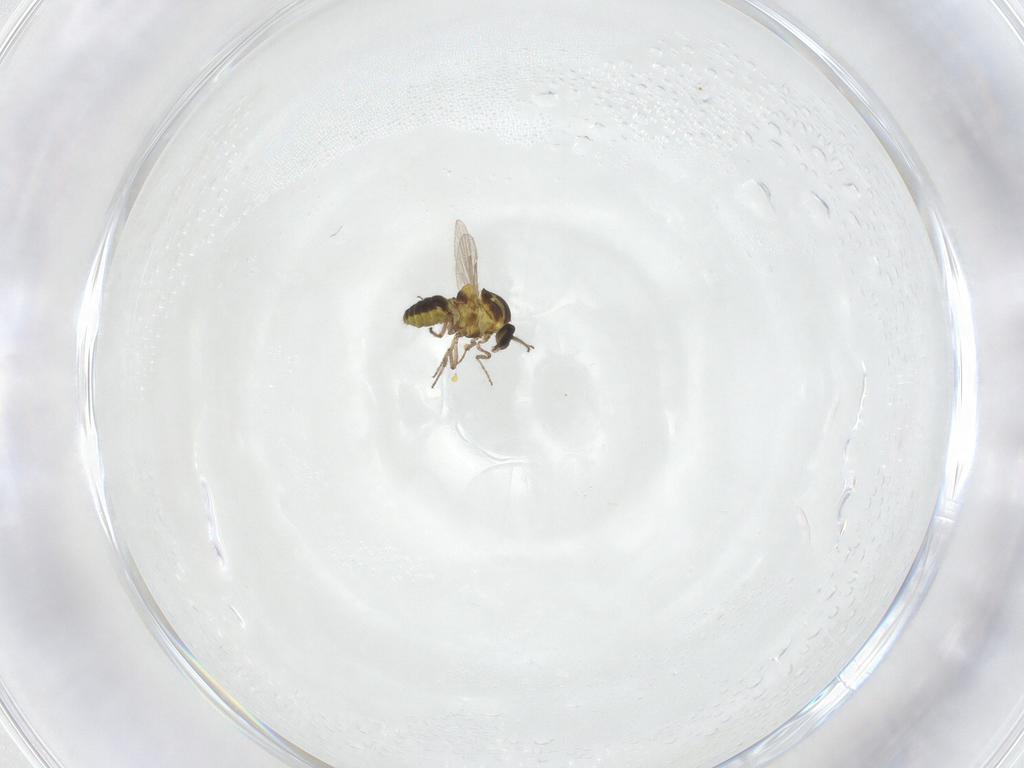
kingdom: Animalia
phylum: Arthropoda
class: Insecta
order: Diptera
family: Ceratopogonidae
